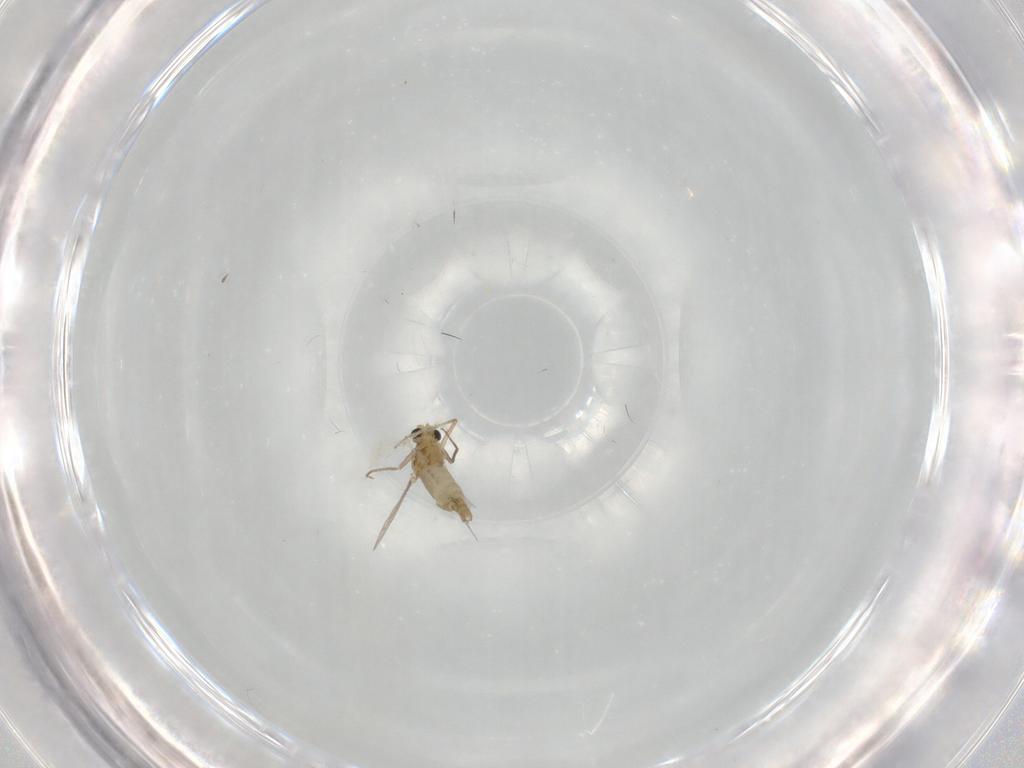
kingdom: Animalia
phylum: Arthropoda
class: Insecta
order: Diptera
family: Chironomidae
